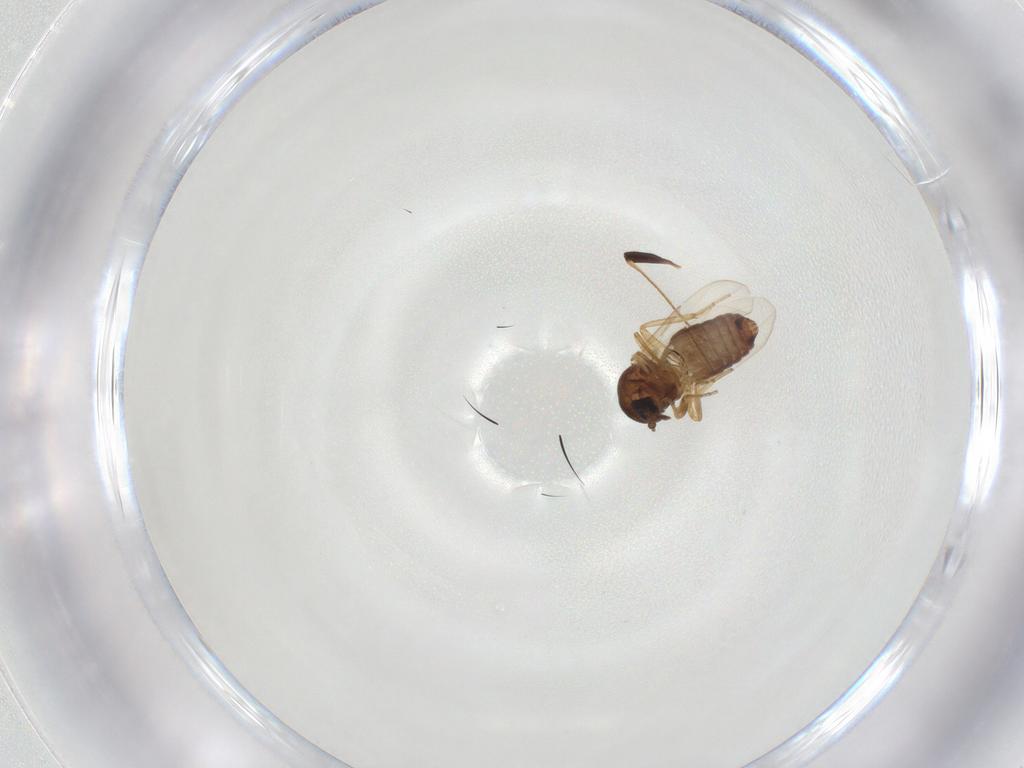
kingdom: Animalia
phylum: Arthropoda
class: Insecta
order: Diptera
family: Ceratopogonidae
